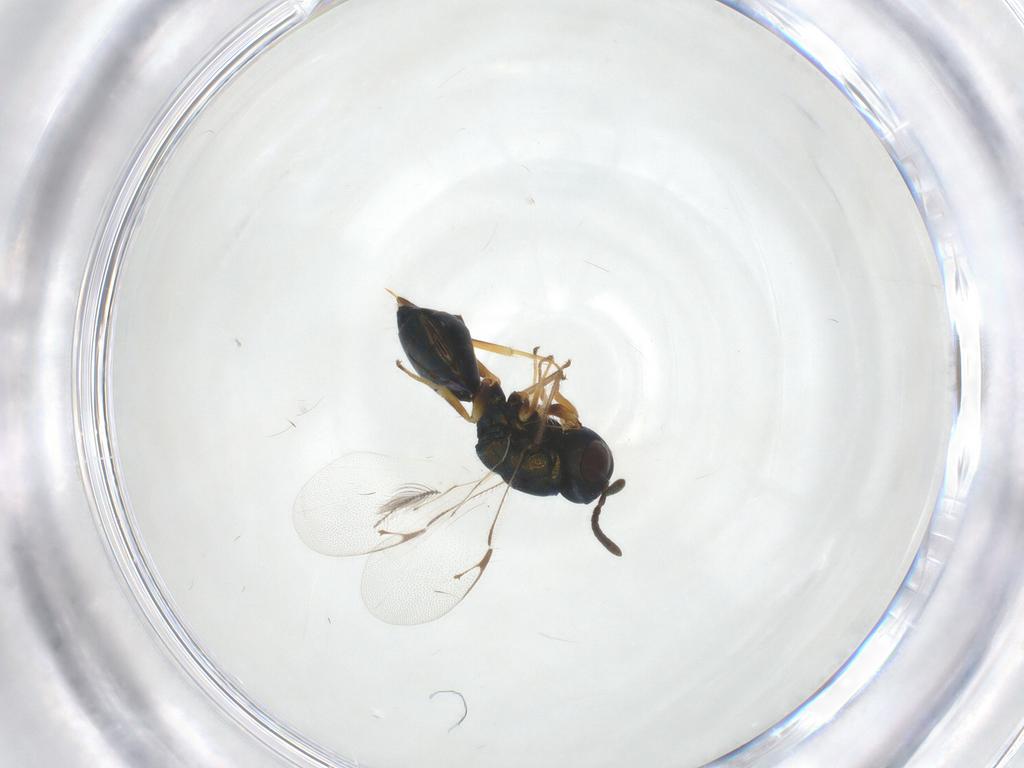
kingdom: Animalia
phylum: Arthropoda
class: Insecta
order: Hymenoptera
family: Pteromalidae
